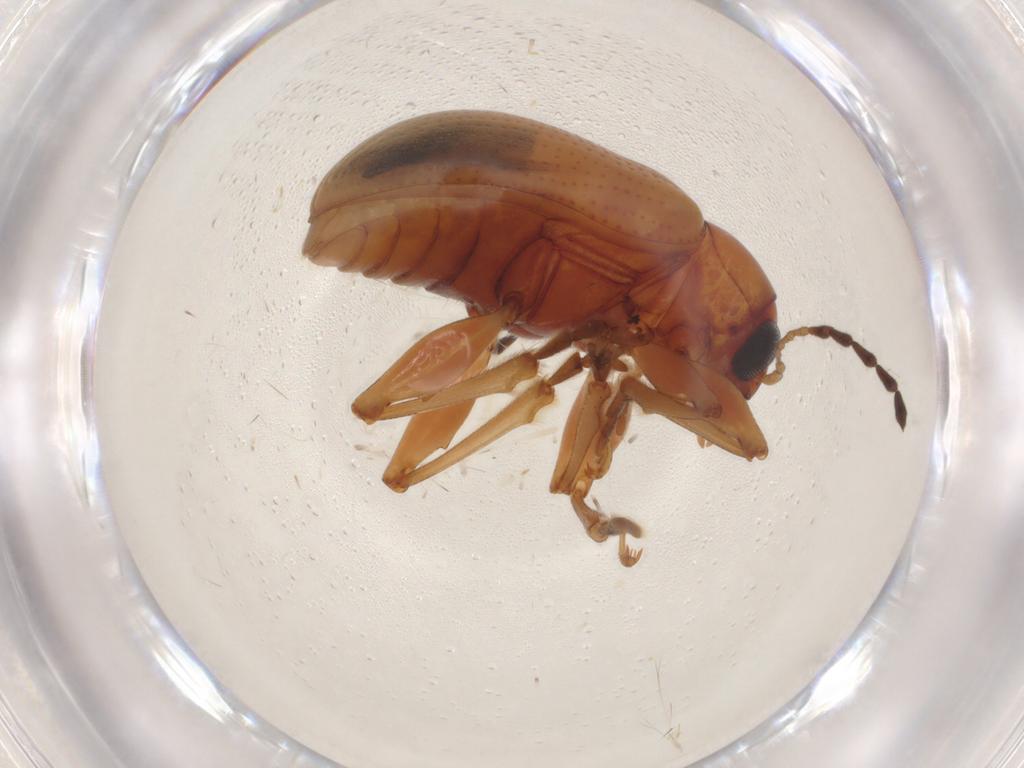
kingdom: Animalia
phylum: Arthropoda
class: Insecta
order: Coleoptera
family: Chrysomelidae
